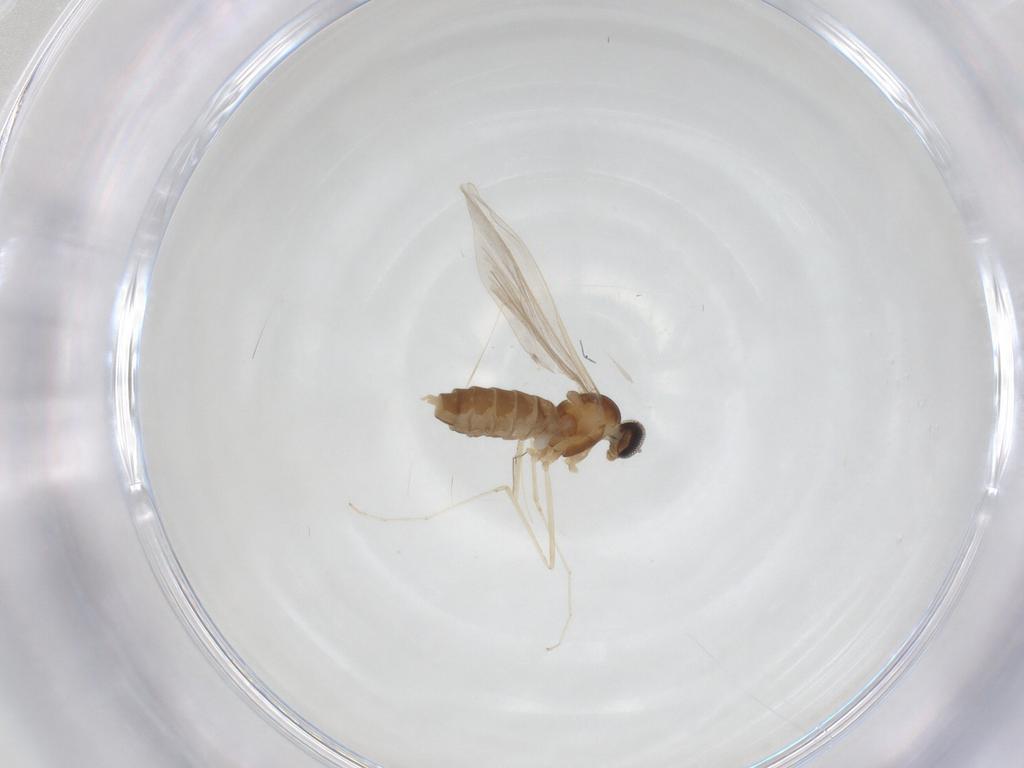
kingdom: Animalia
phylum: Arthropoda
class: Insecta
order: Diptera
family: Cecidomyiidae
